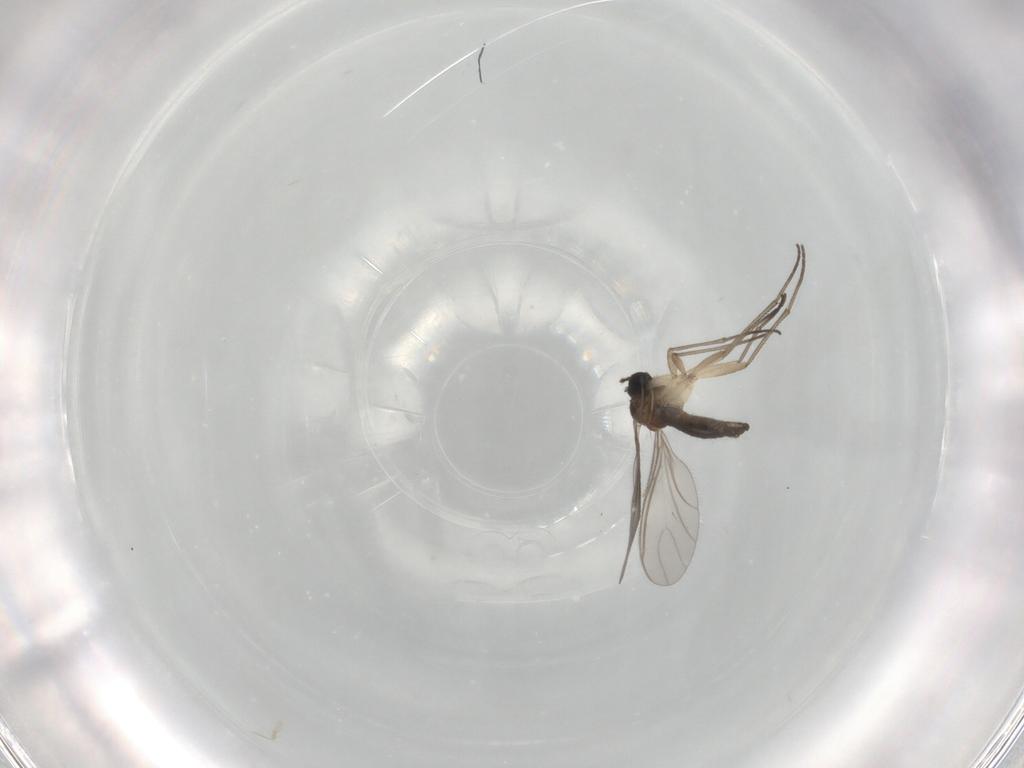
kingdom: Animalia
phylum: Arthropoda
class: Insecta
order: Diptera
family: Sciaridae
